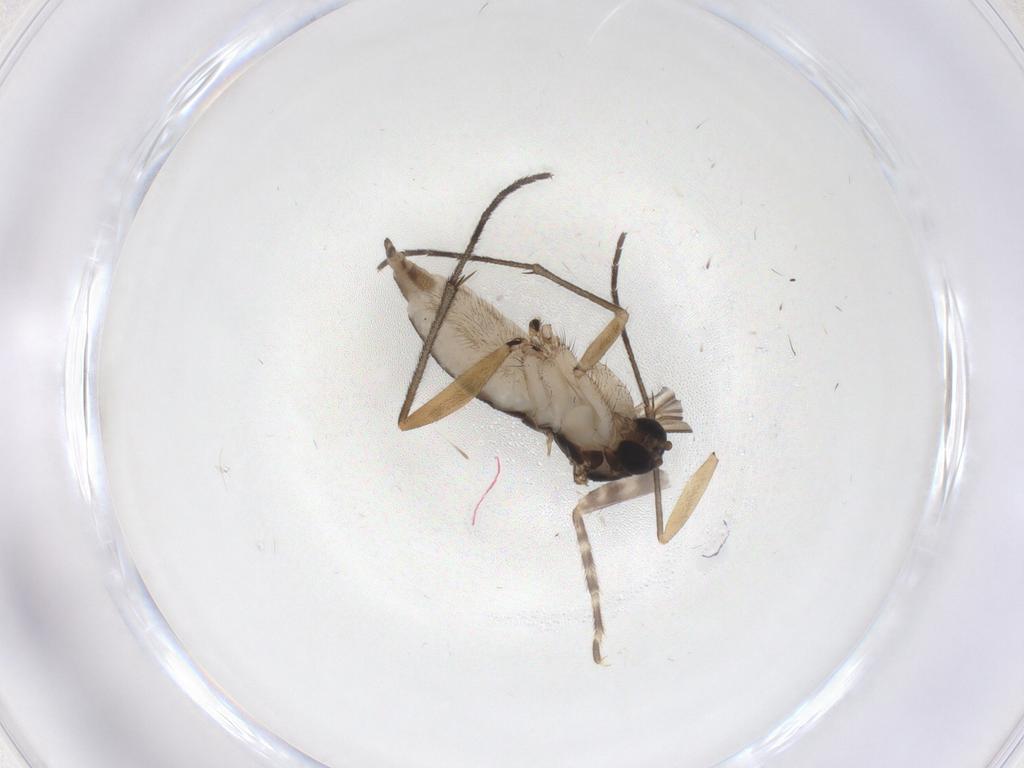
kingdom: Animalia
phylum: Arthropoda
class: Insecta
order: Diptera
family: Sciaridae
